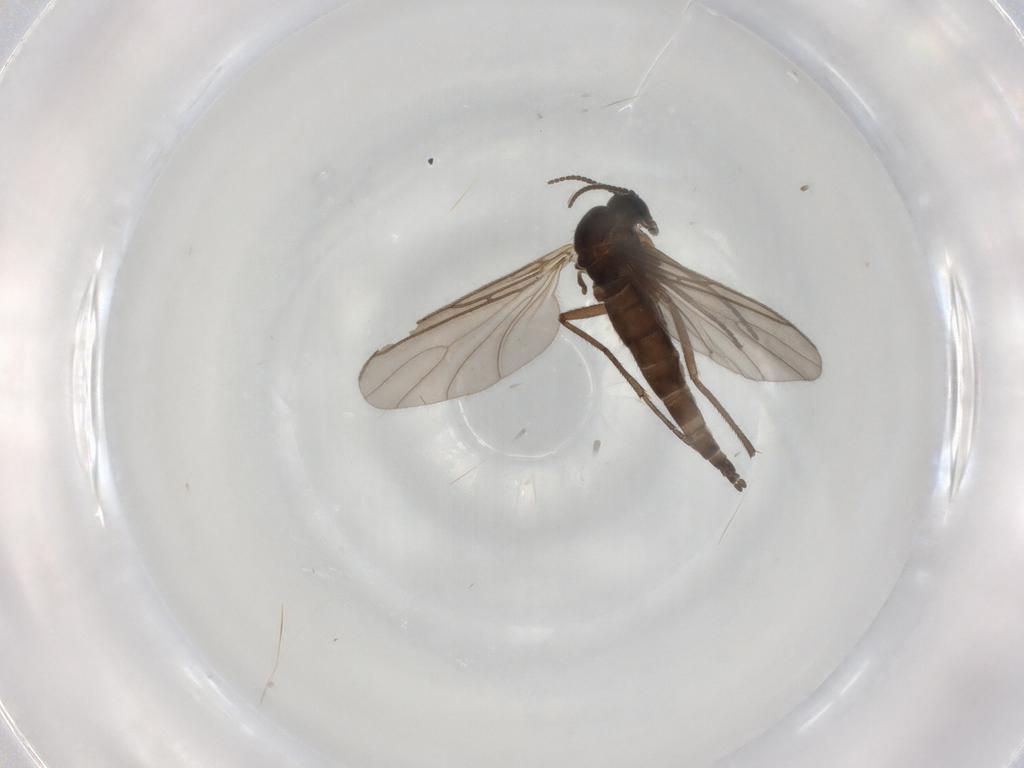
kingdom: Animalia
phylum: Arthropoda
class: Insecta
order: Diptera
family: Sciaridae
